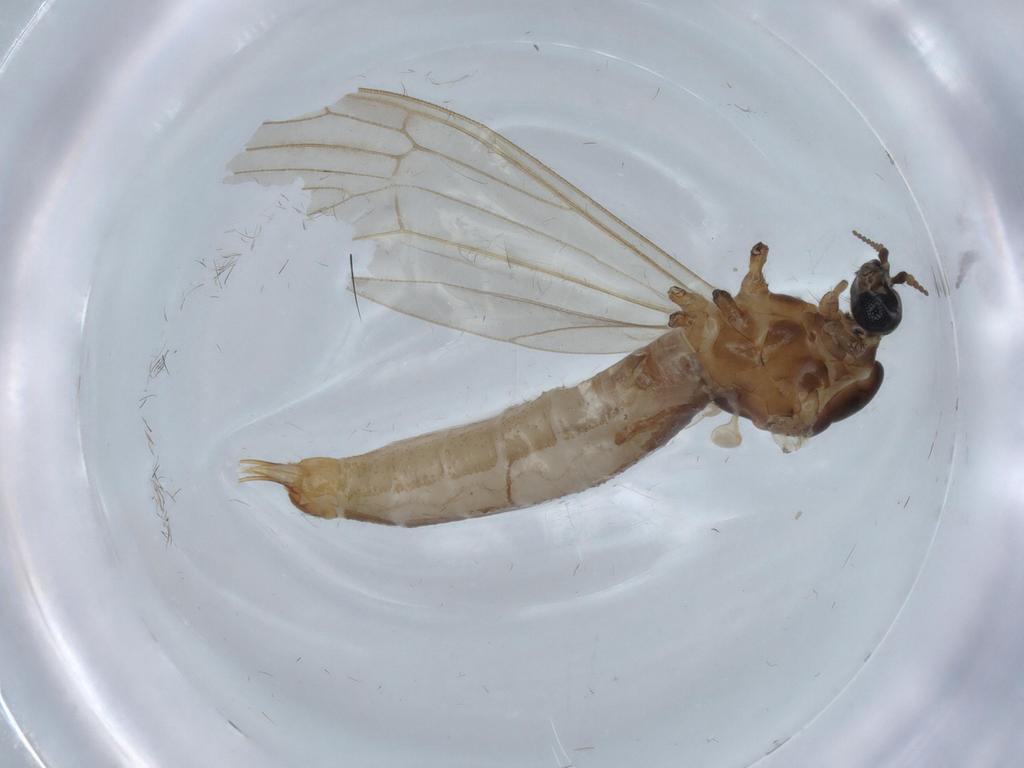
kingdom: Animalia
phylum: Arthropoda
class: Insecta
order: Diptera
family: Limoniidae
